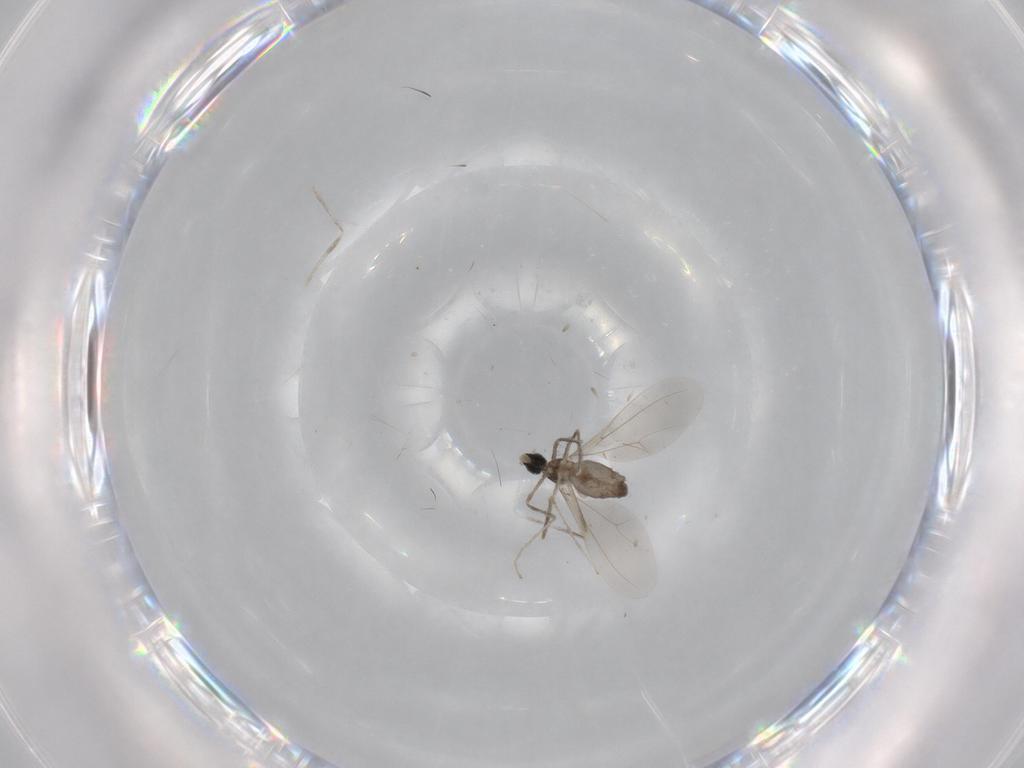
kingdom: Animalia
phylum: Arthropoda
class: Insecta
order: Diptera
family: Cecidomyiidae
